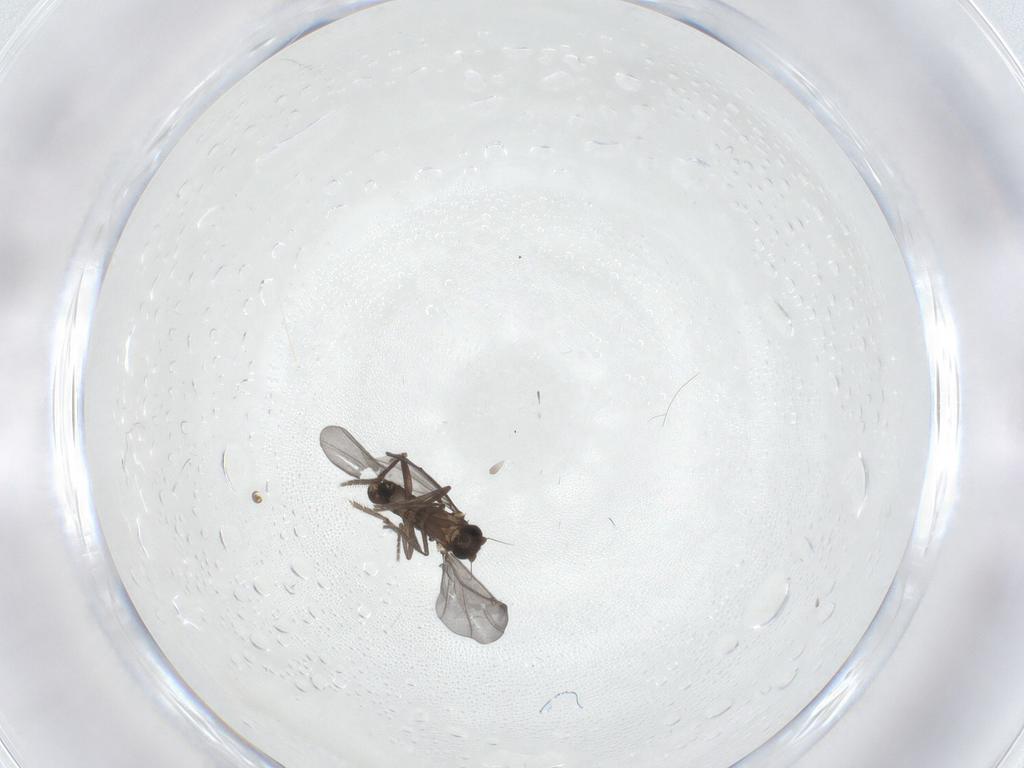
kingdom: Animalia
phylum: Arthropoda
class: Insecta
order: Diptera
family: Phoridae
